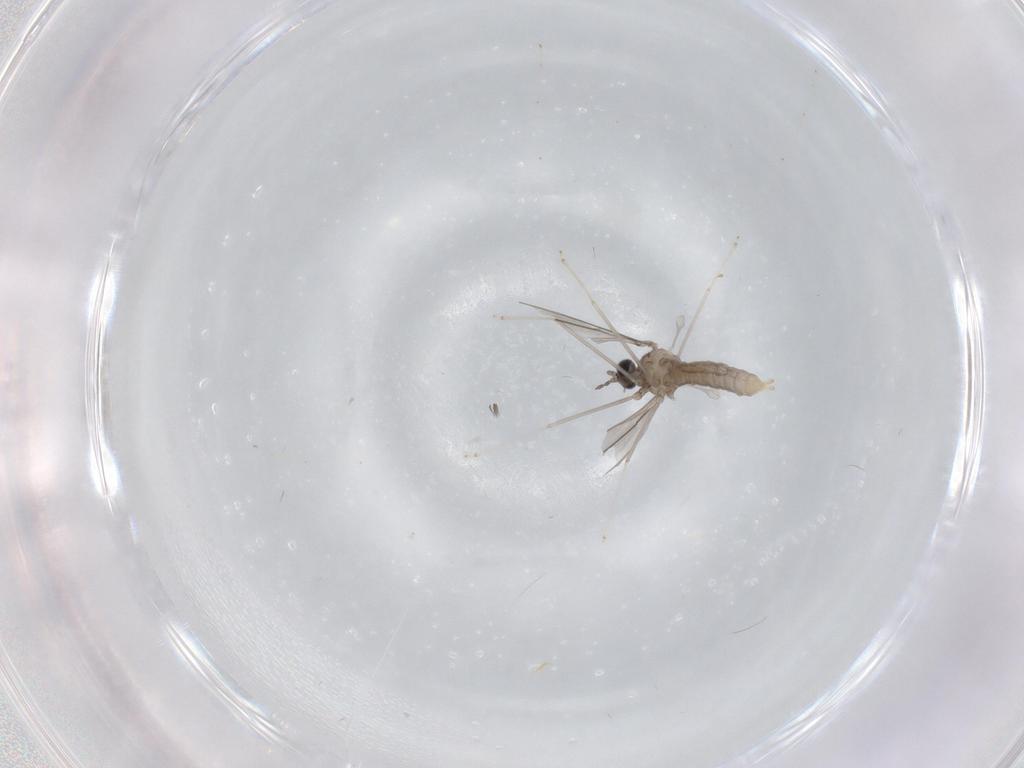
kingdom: Animalia
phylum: Arthropoda
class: Insecta
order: Diptera
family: Cecidomyiidae
